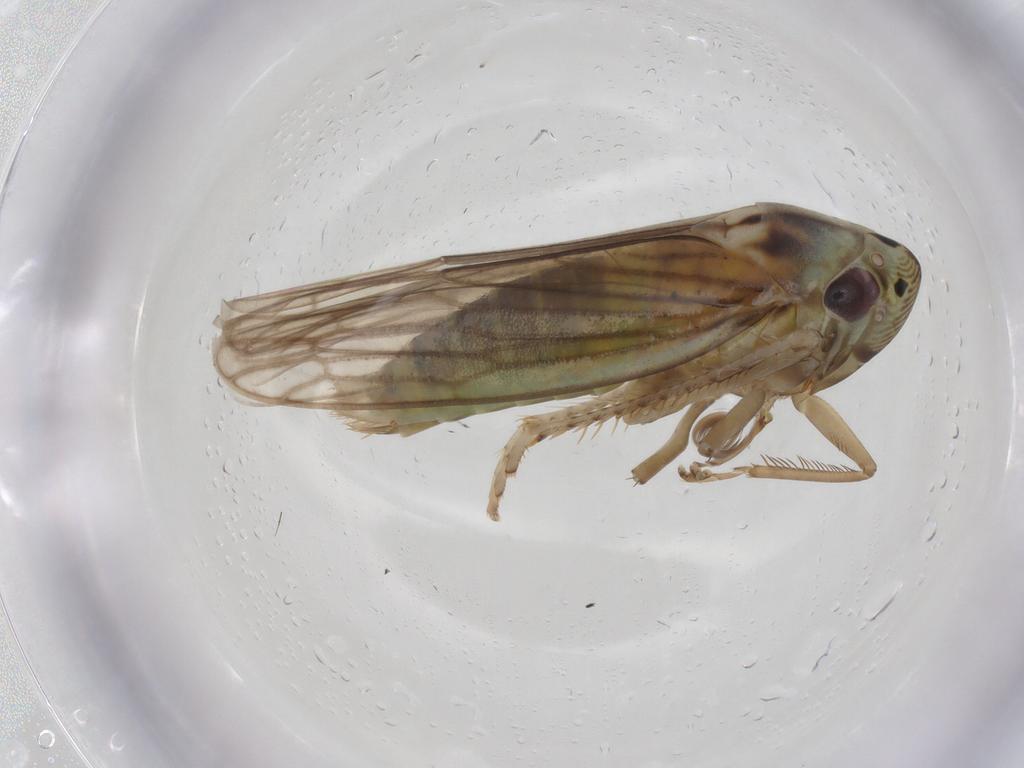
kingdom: Animalia
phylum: Arthropoda
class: Insecta
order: Hemiptera
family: Cicadellidae
